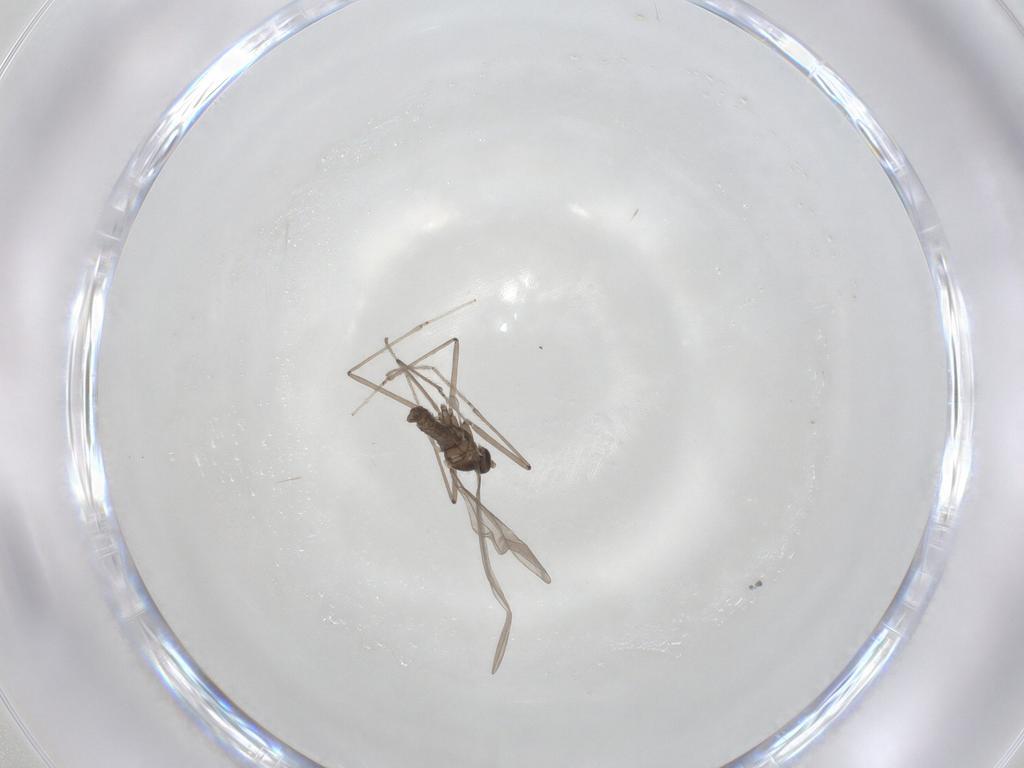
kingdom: Animalia
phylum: Arthropoda
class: Insecta
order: Diptera
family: Cecidomyiidae
